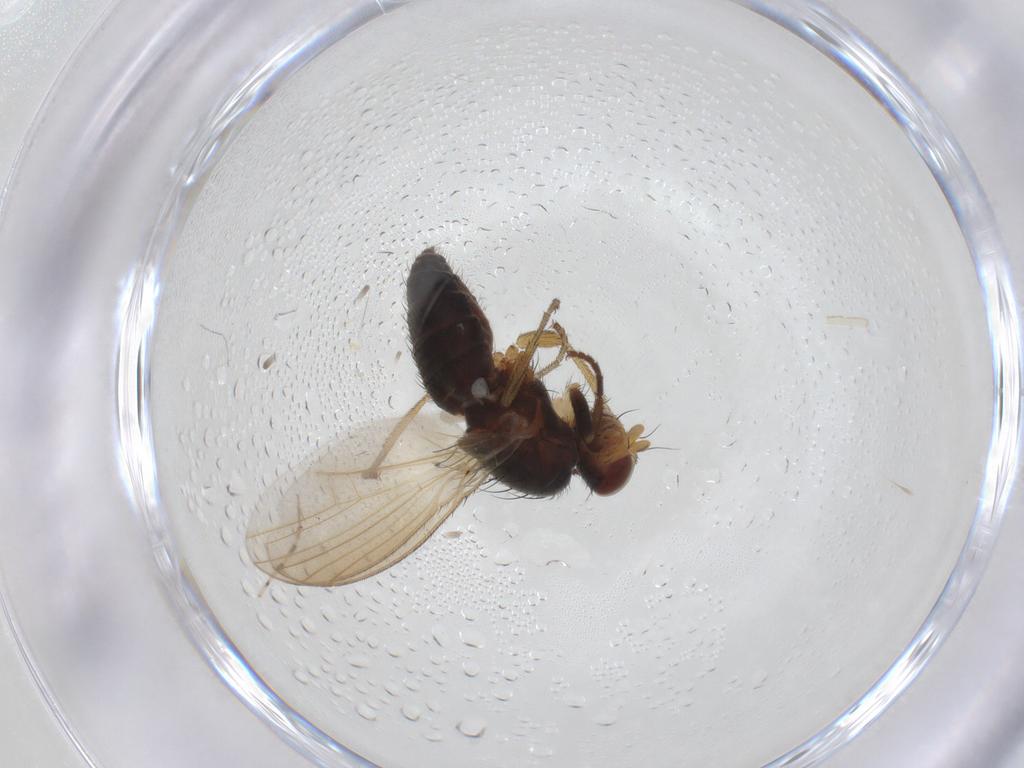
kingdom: Animalia
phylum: Arthropoda
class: Insecta
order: Diptera
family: Chironomidae
